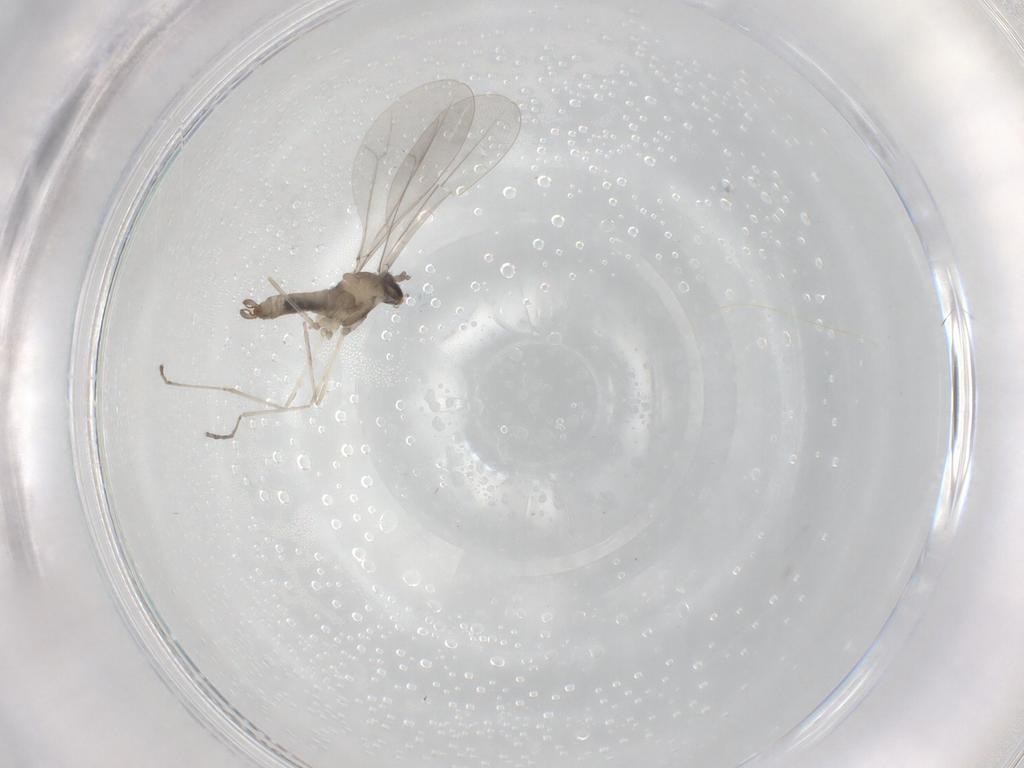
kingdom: Animalia
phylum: Arthropoda
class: Insecta
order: Diptera
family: Cecidomyiidae
